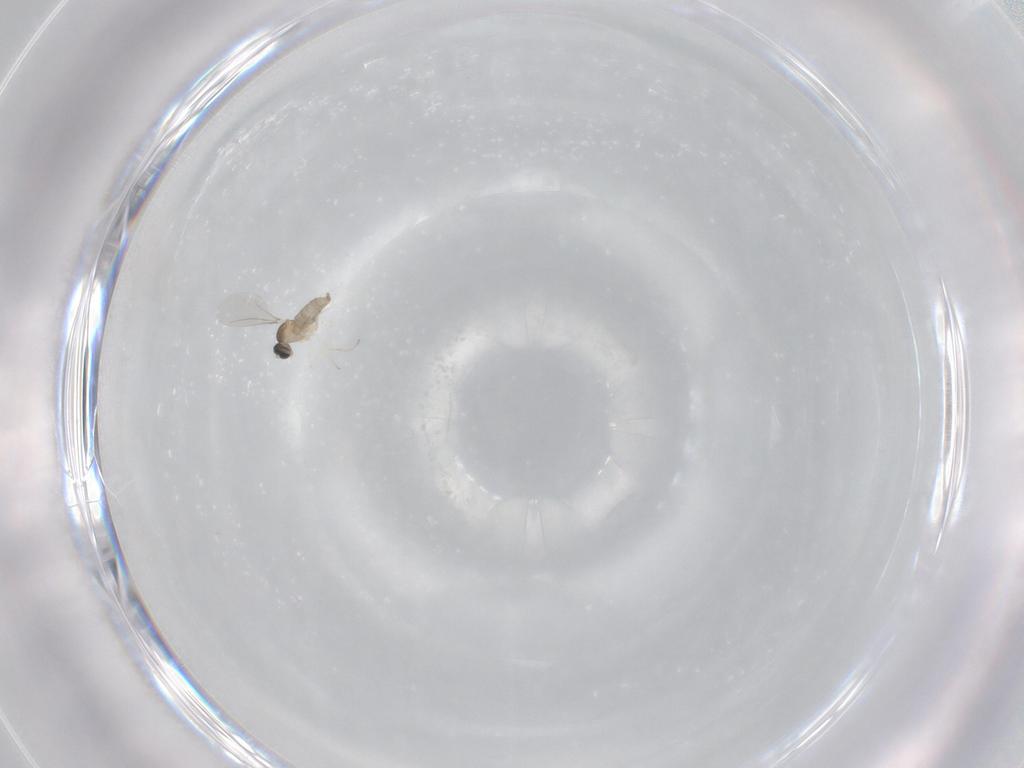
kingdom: Animalia
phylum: Arthropoda
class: Insecta
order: Diptera
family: Cecidomyiidae
